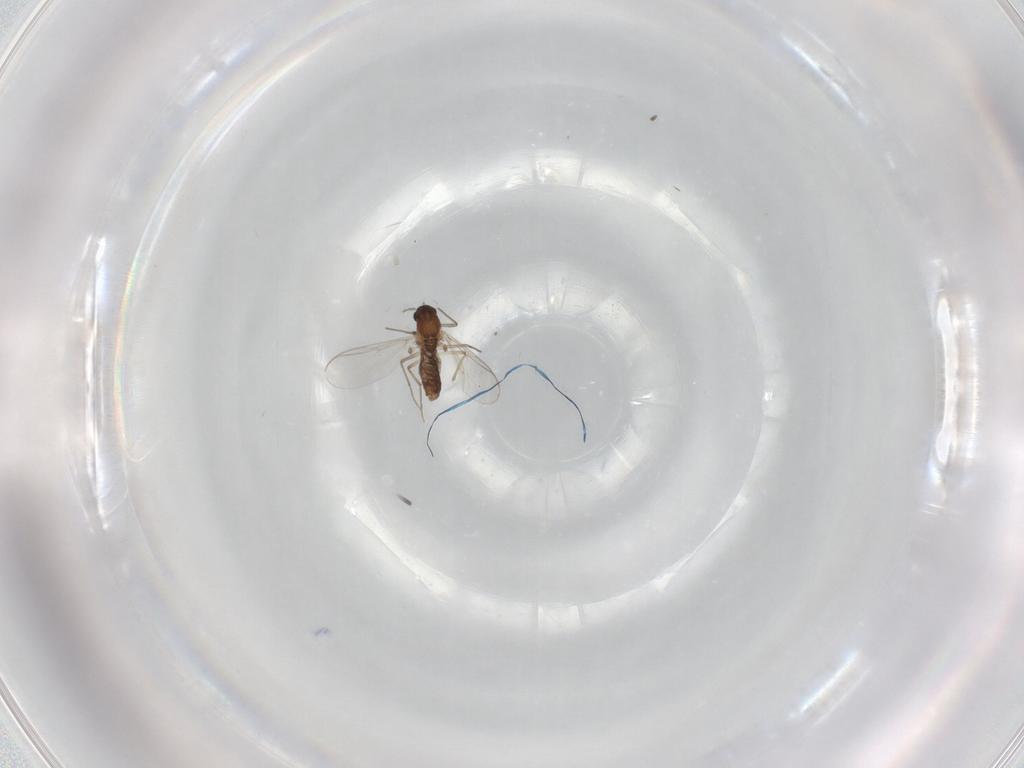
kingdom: Animalia
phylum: Arthropoda
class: Insecta
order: Diptera
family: Chironomidae
